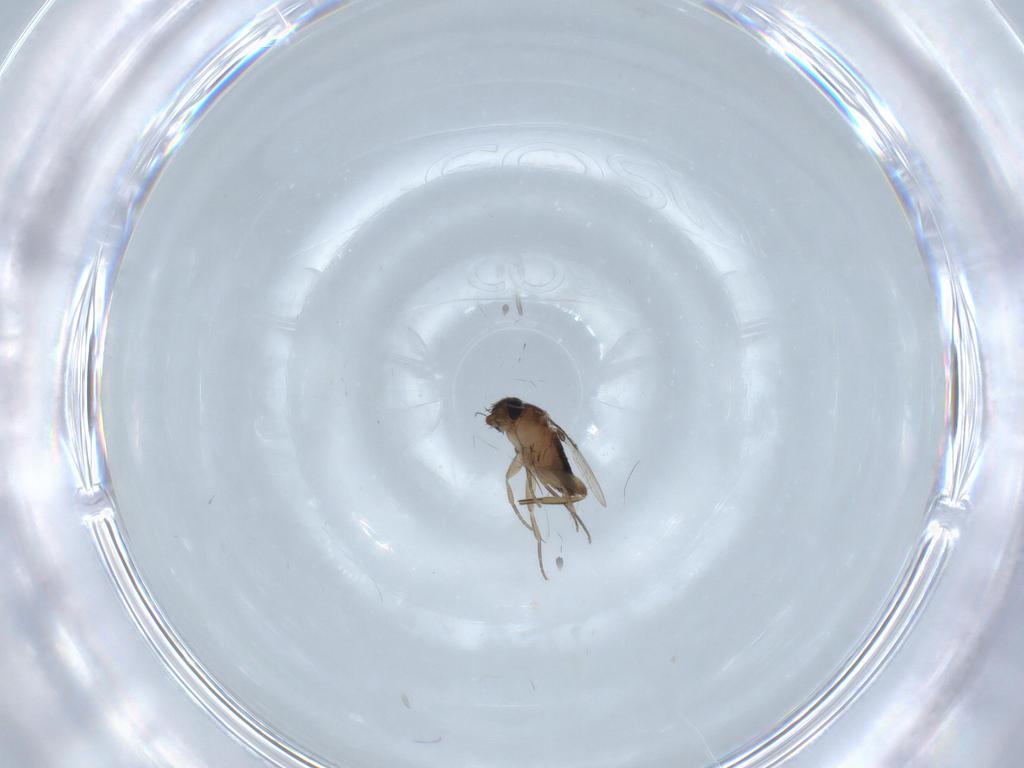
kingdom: Animalia
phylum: Arthropoda
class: Insecta
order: Diptera
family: Phoridae
